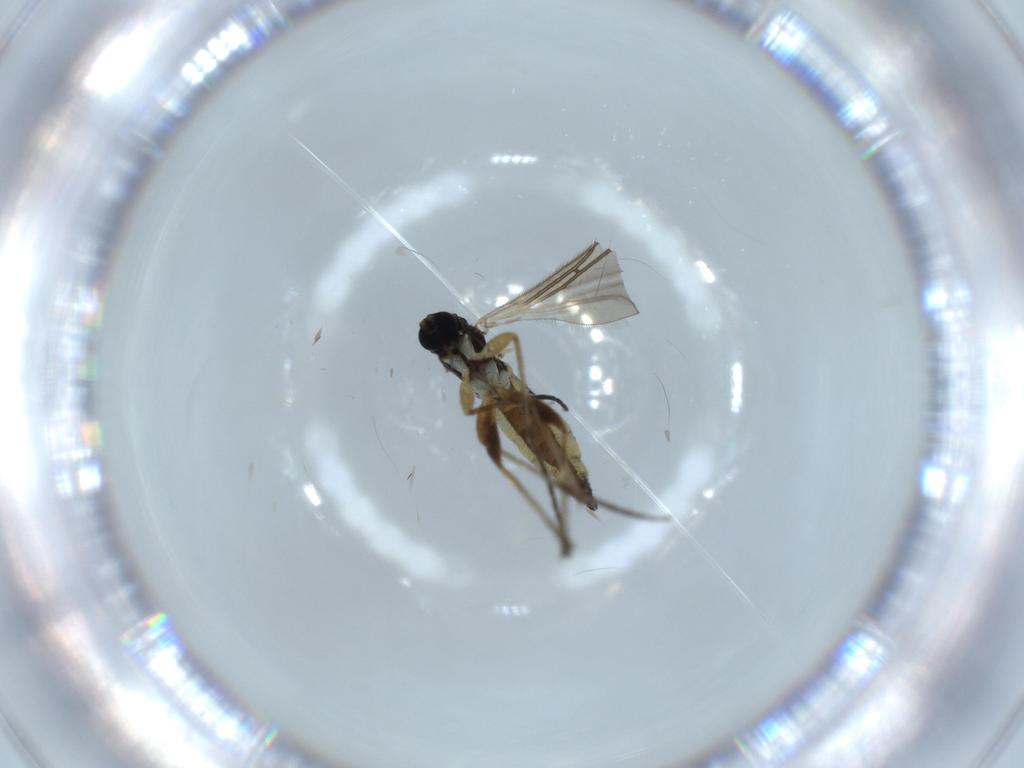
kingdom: Animalia
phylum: Arthropoda
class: Insecta
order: Diptera
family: Sciaridae
